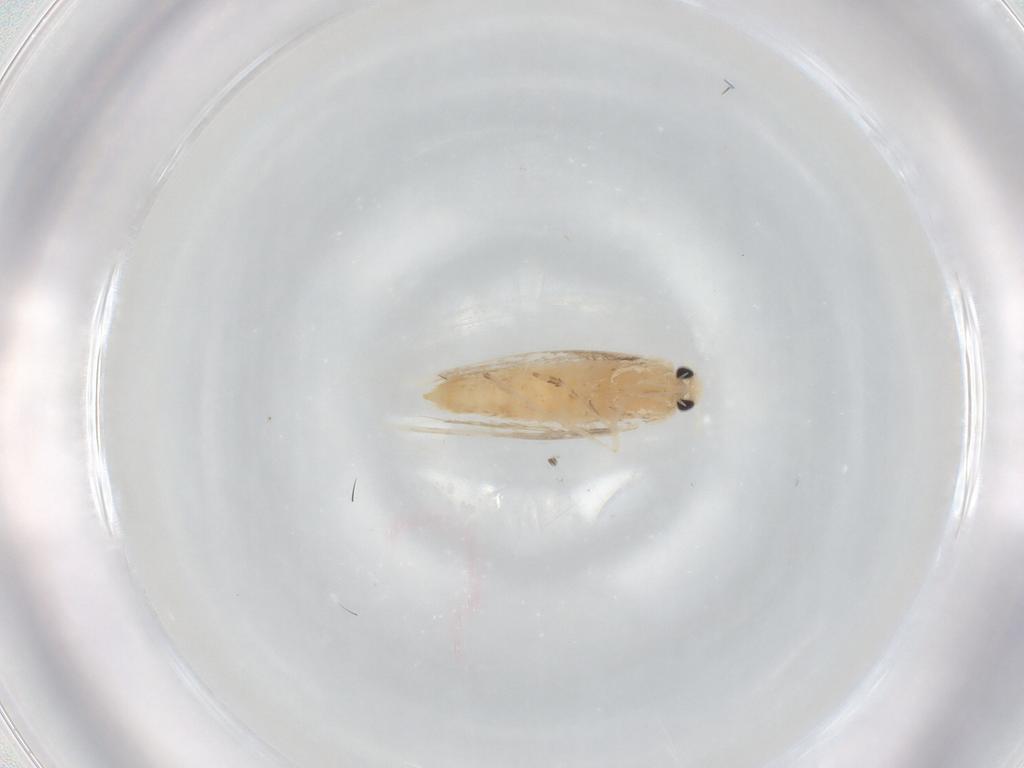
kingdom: Animalia
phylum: Arthropoda
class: Insecta
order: Lepidoptera
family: Gracillariidae
